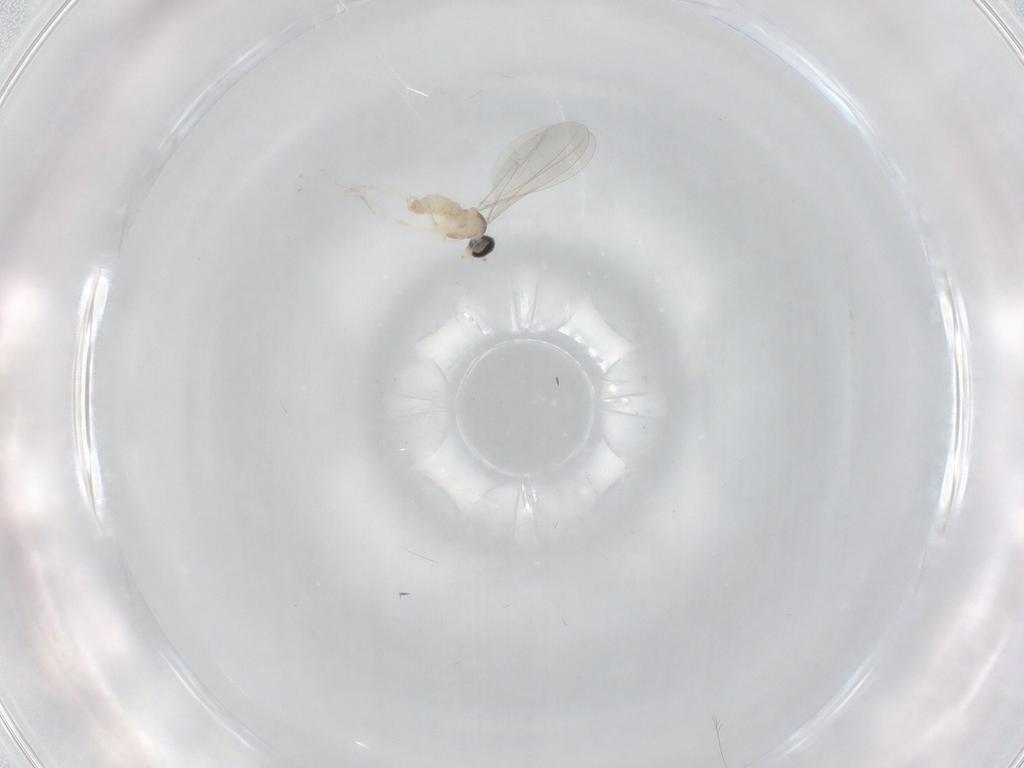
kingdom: Animalia
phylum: Arthropoda
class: Insecta
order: Diptera
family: Cecidomyiidae
